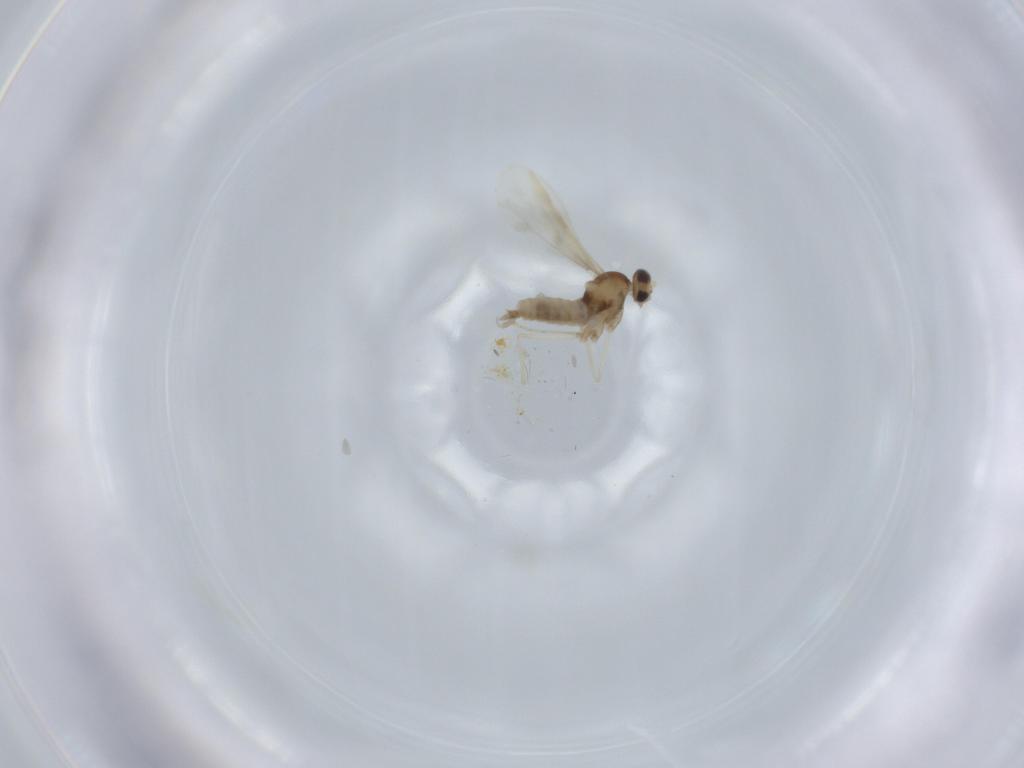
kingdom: Animalia
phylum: Arthropoda
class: Insecta
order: Diptera
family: Cecidomyiidae
